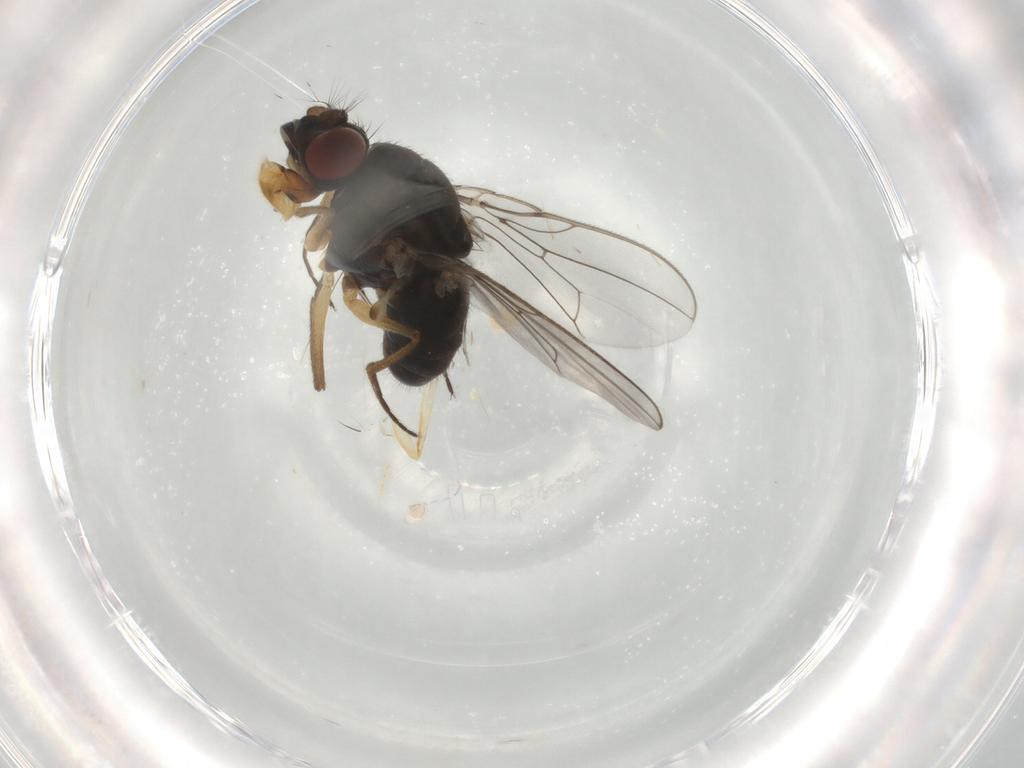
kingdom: Animalia
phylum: Arthropoda
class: Insecta
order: Diptera
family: Ephydridae
